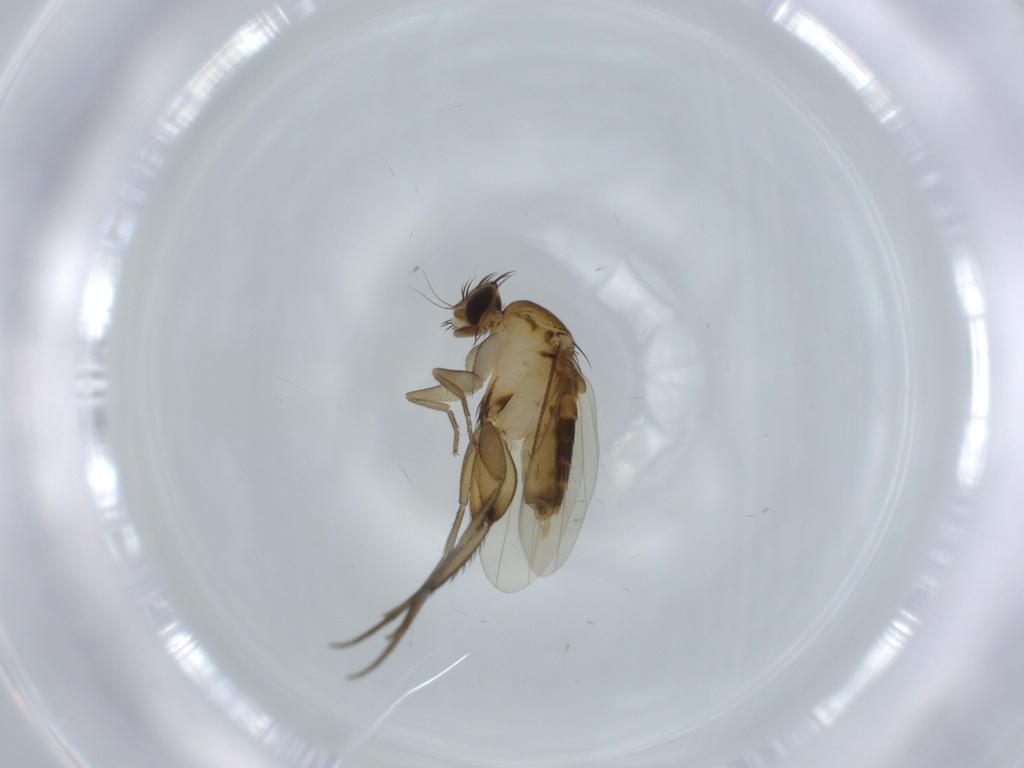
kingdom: Animalia
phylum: Arthropoda
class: Insecta
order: Diptera
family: Phoridae
